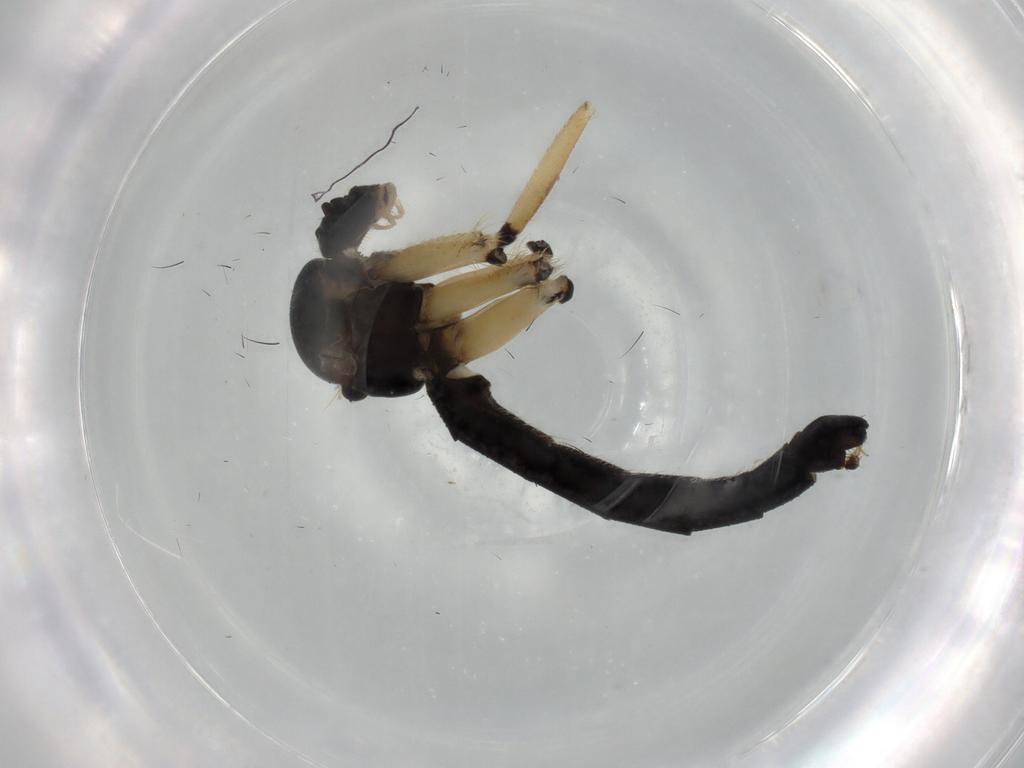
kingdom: Animalia
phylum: Arthropoda
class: Insecta
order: Diptera
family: Mycetophilidae
